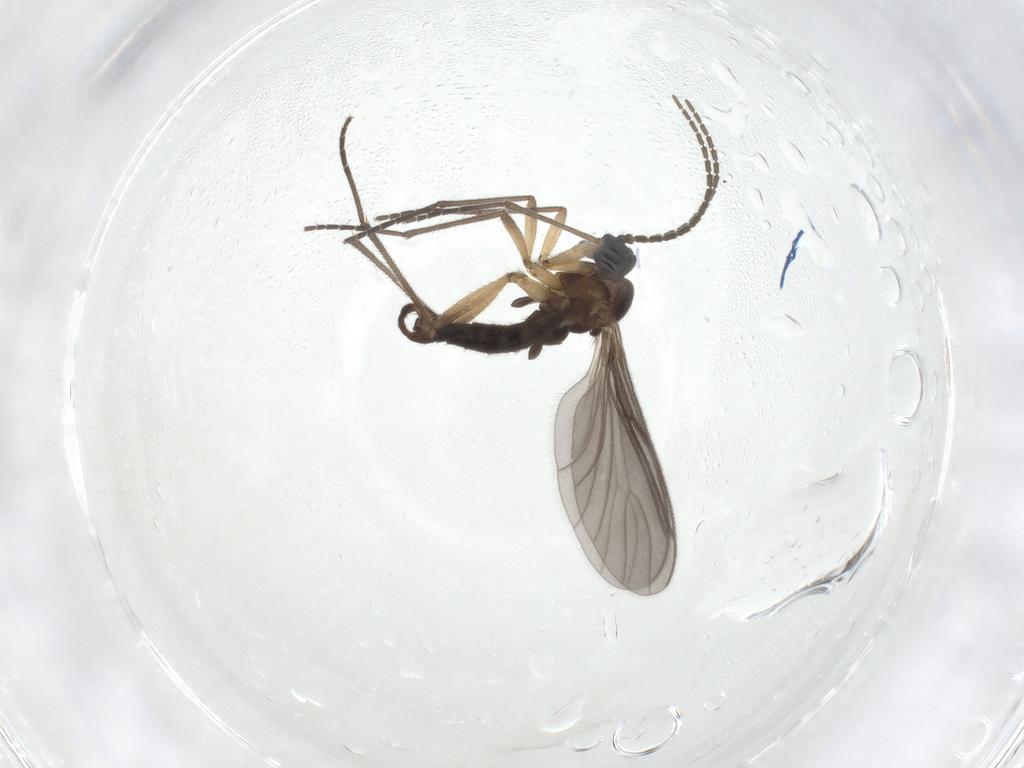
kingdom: Animalia
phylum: Arthropoda
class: Insecta
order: Diptera
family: Sciaridae
